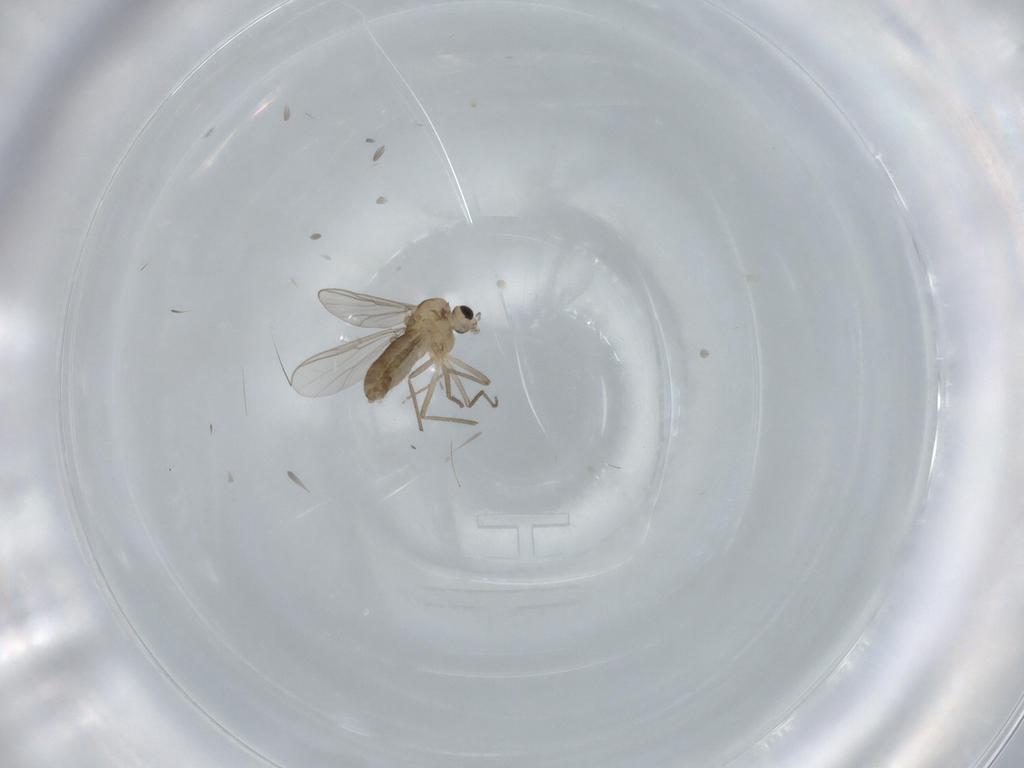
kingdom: Animalia
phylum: Arthropoda
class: Insecta
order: Diptera
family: Chironomidae
